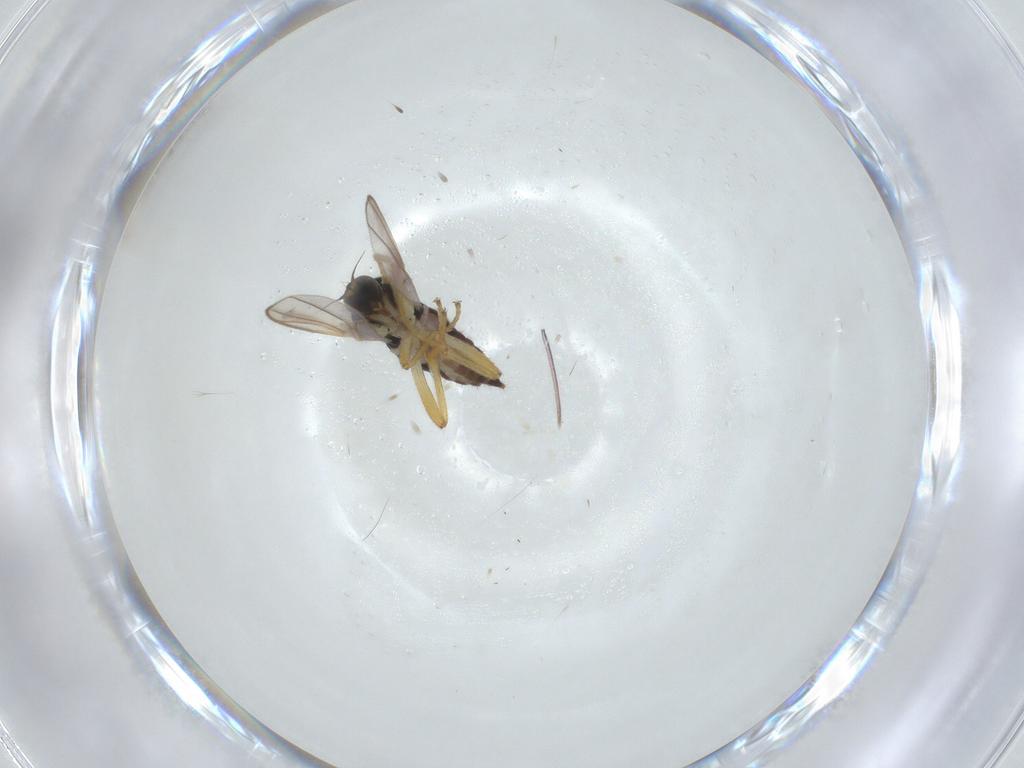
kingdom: Animalia
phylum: Arthropoda
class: Insecta
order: Diptera
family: Hybotidae
